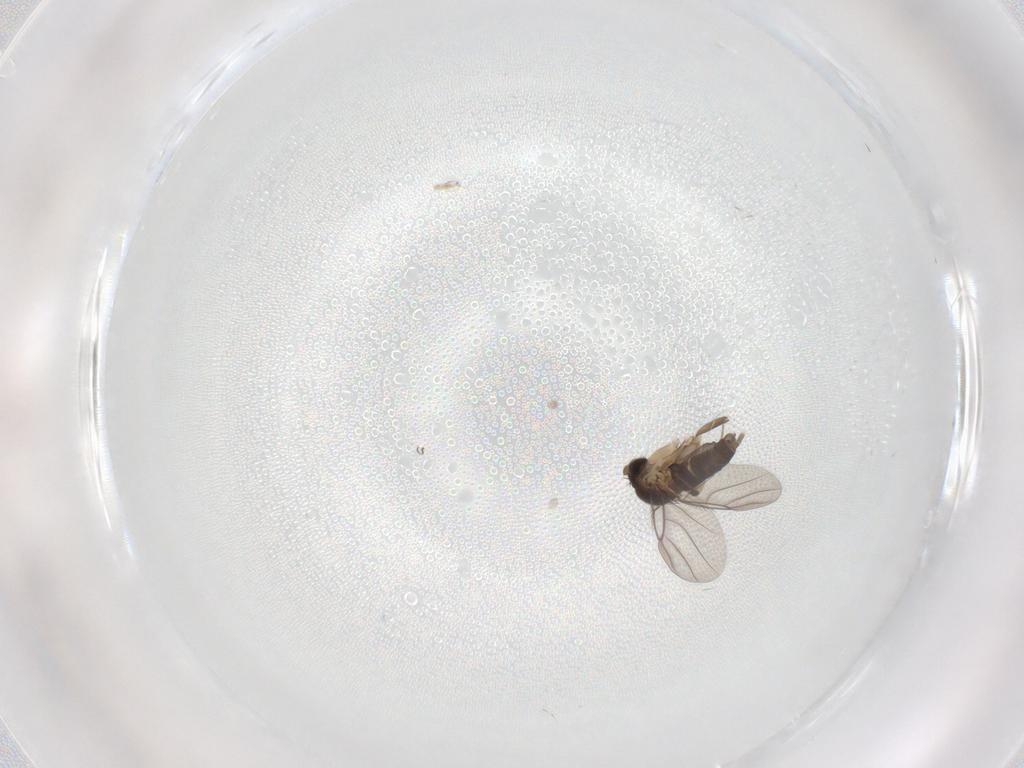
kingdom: Animalia
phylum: Arthropoda
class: Insecta
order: Diptera
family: Phoridae
